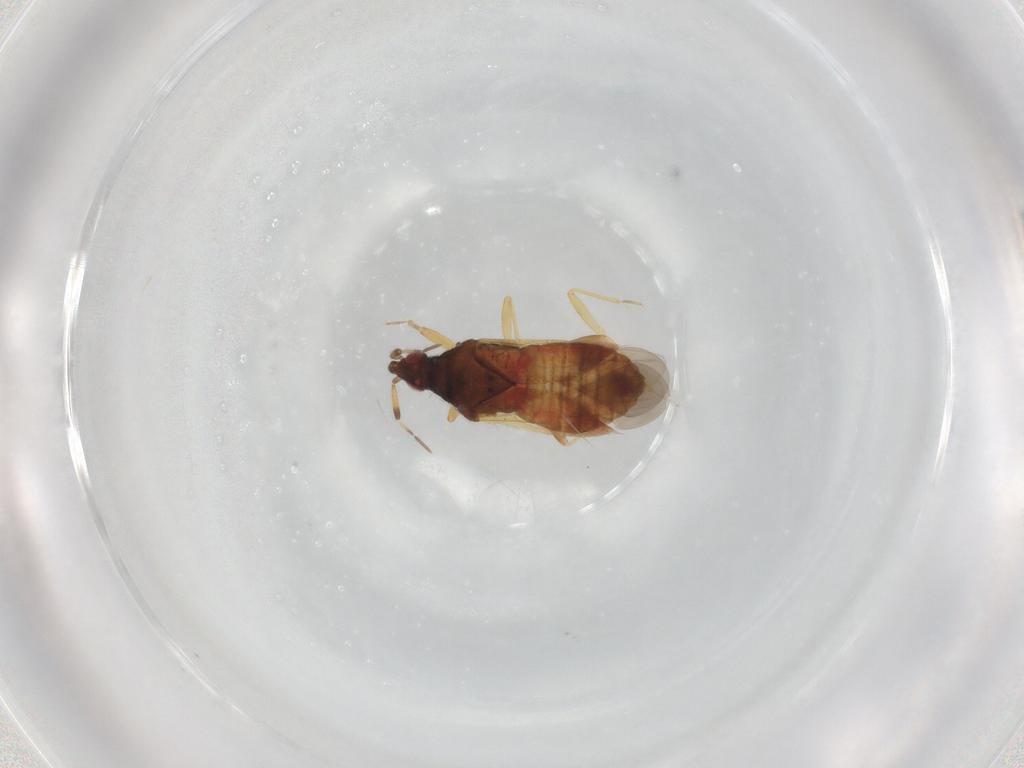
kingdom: Animalia
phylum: Arthropoda
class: Insecta
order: Hemiptera
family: Anthocoridae
